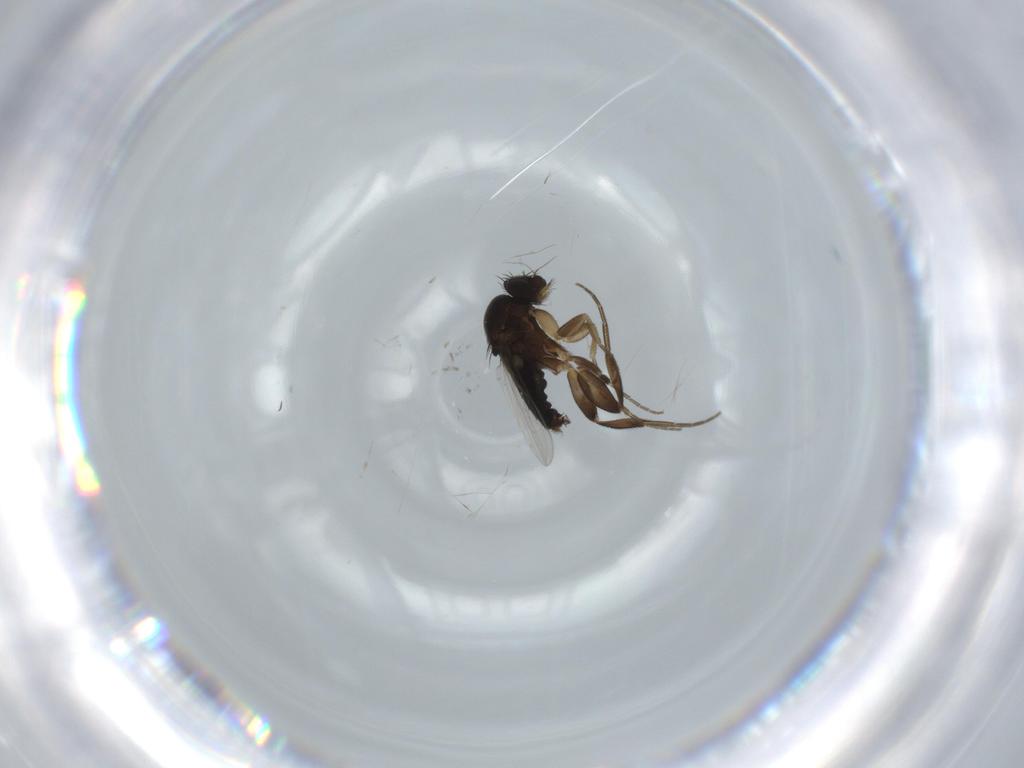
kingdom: Animalia
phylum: Arthropoda
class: Insecta
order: Diptera
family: Phoridae
